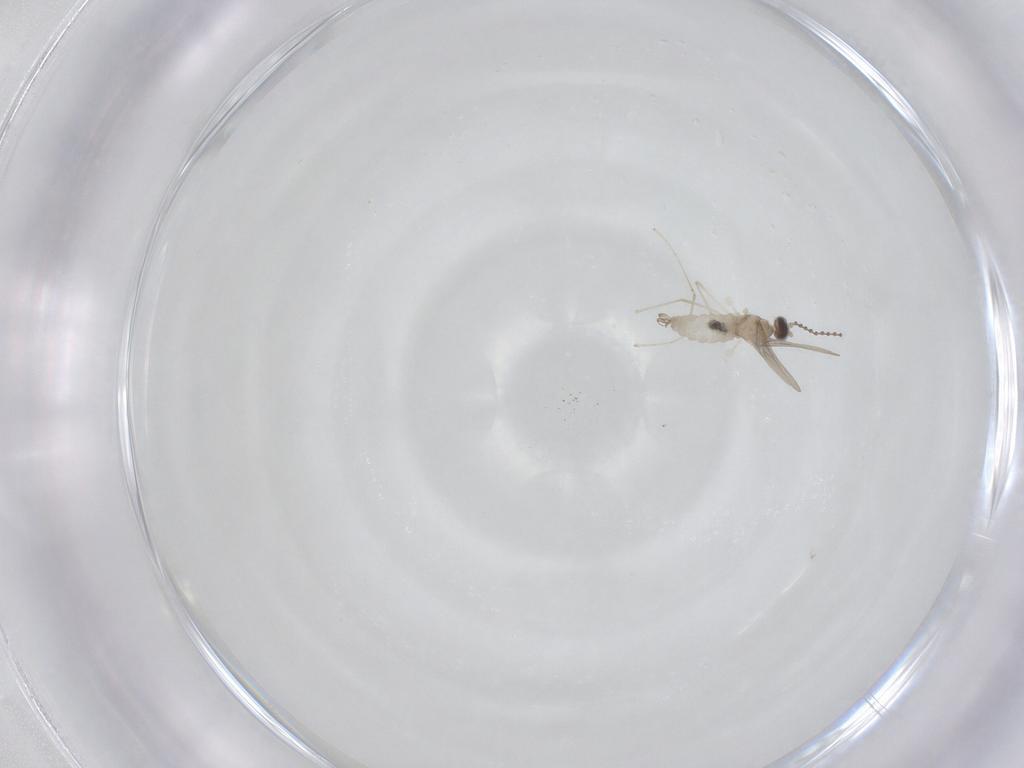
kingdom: Animalia
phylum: Arthropoda
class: Insecta
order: Diptera
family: Cecidomyiidae
